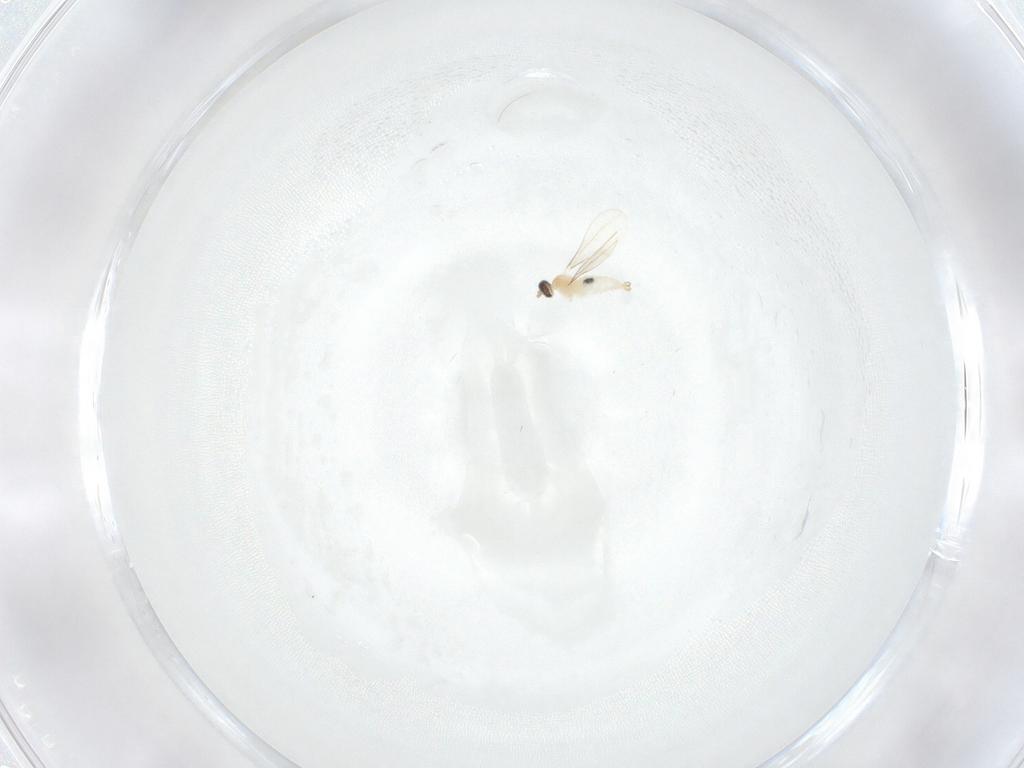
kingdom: Animalia
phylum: Arthropoda
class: Insecta
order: Diptera
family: Cecidomyiidae
